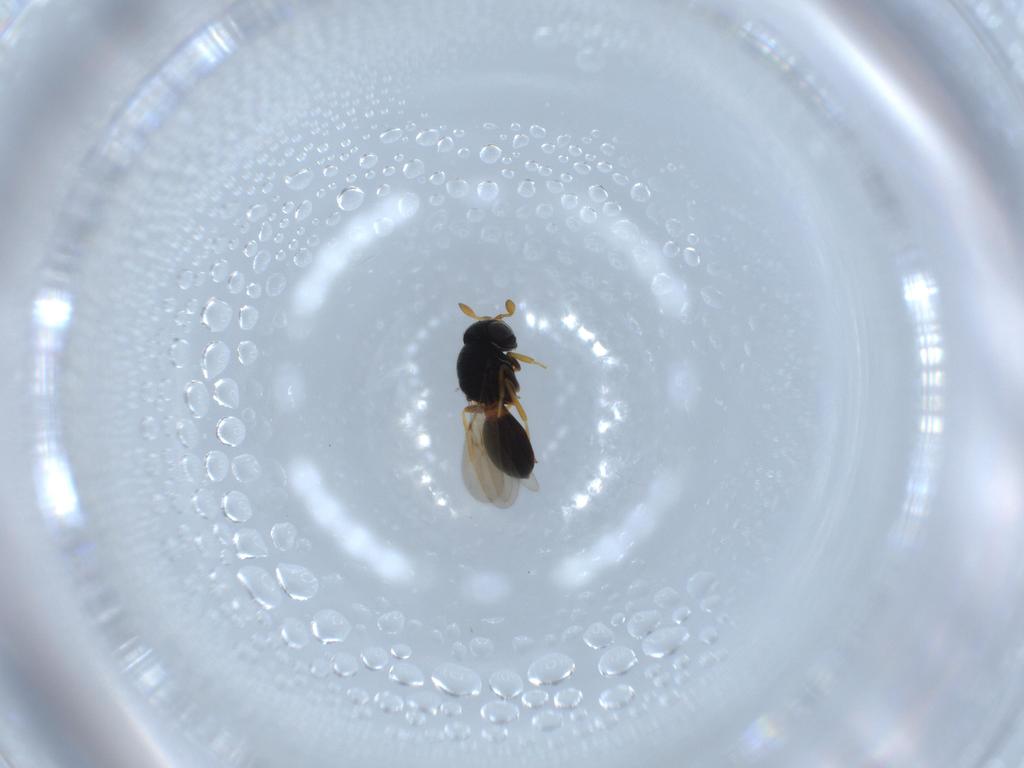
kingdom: Animalia
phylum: Arthropoda
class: Insecta
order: Hymenoptera
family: Scelionidae
